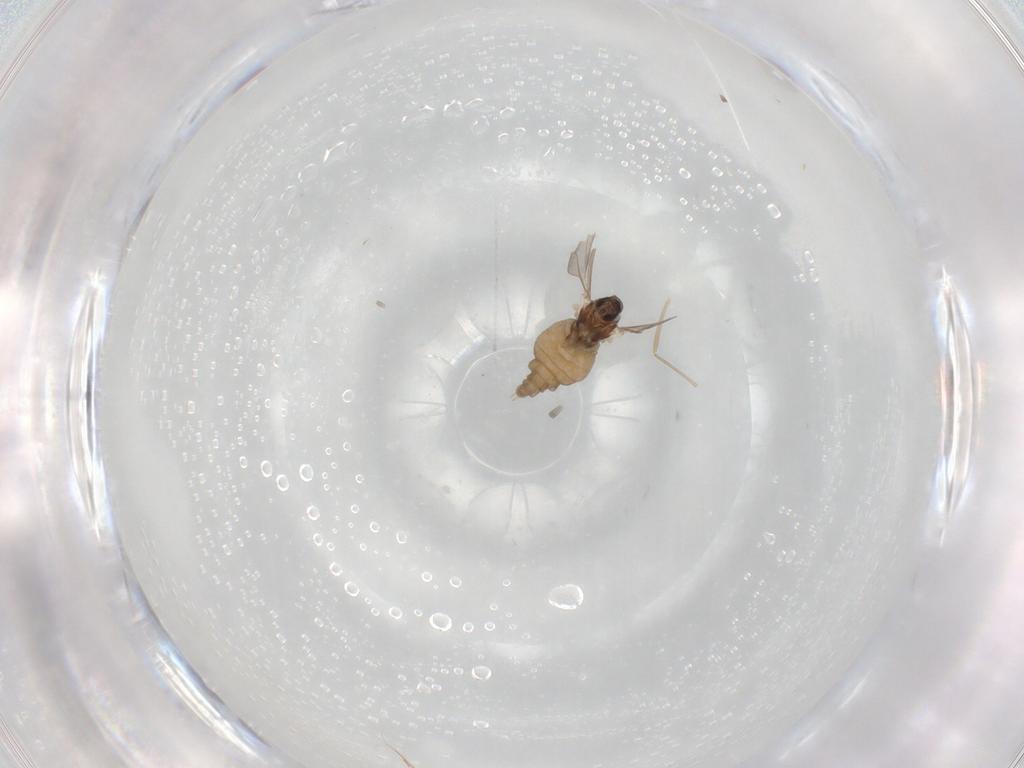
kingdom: Animalia
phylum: Arthropoda
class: Insecta
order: Diptera
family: Cecidomyiidae
